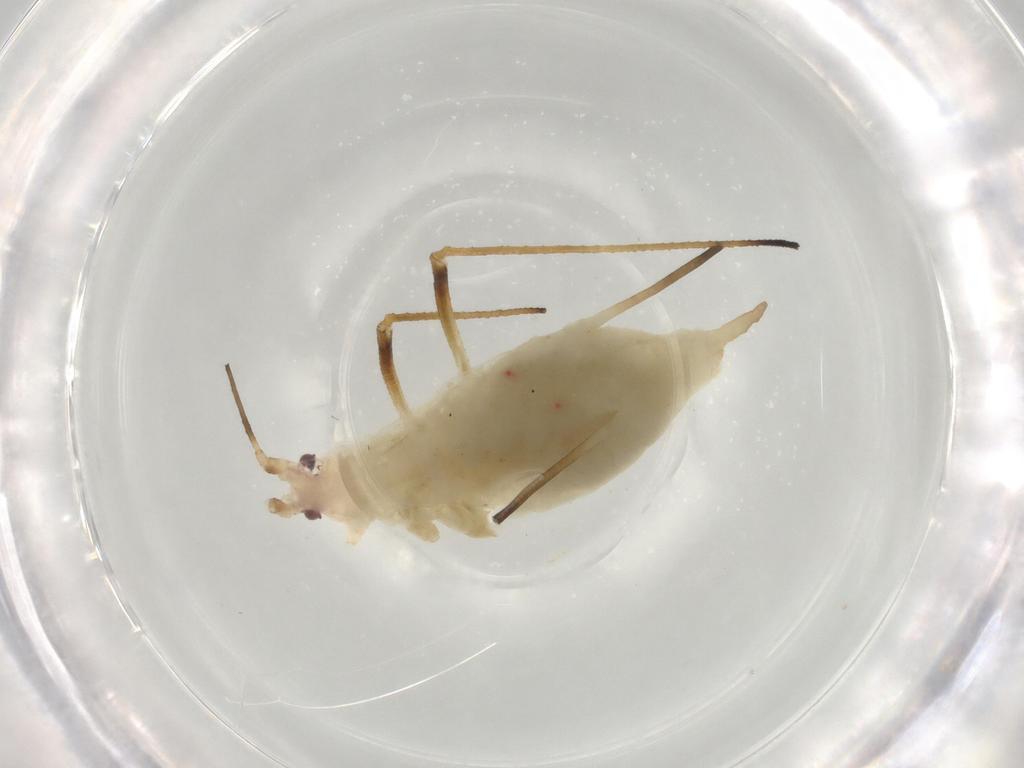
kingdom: Animalia
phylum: Arthropoda
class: Insecta
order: Hemiptera
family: Aphididae
